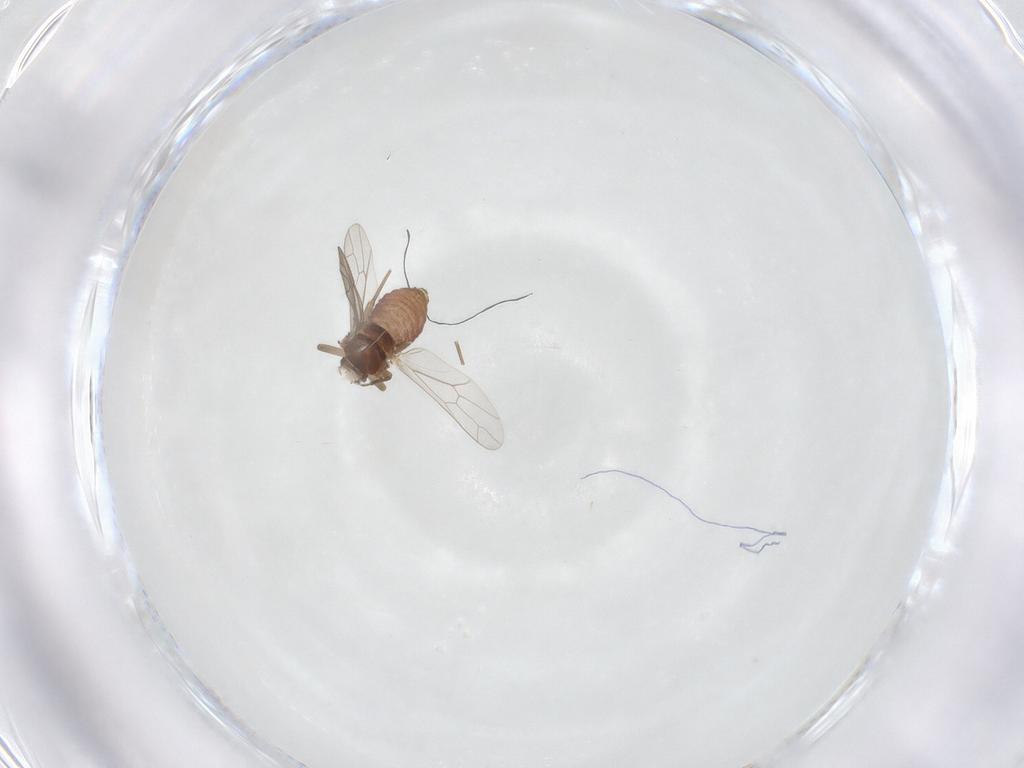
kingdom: Animalia
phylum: Arthropoda
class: Insecta
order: Psocodea
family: Ectopsocidae
